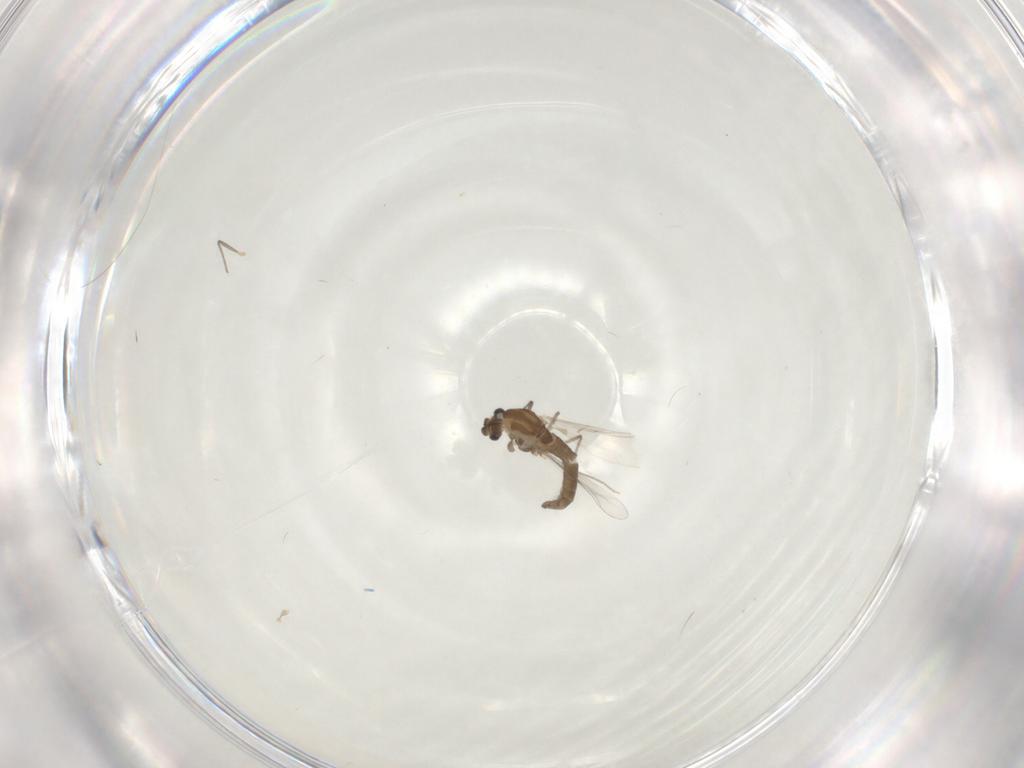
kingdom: Animalia
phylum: Arthropoda
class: Insecta
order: Diptera
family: Chironomidae
